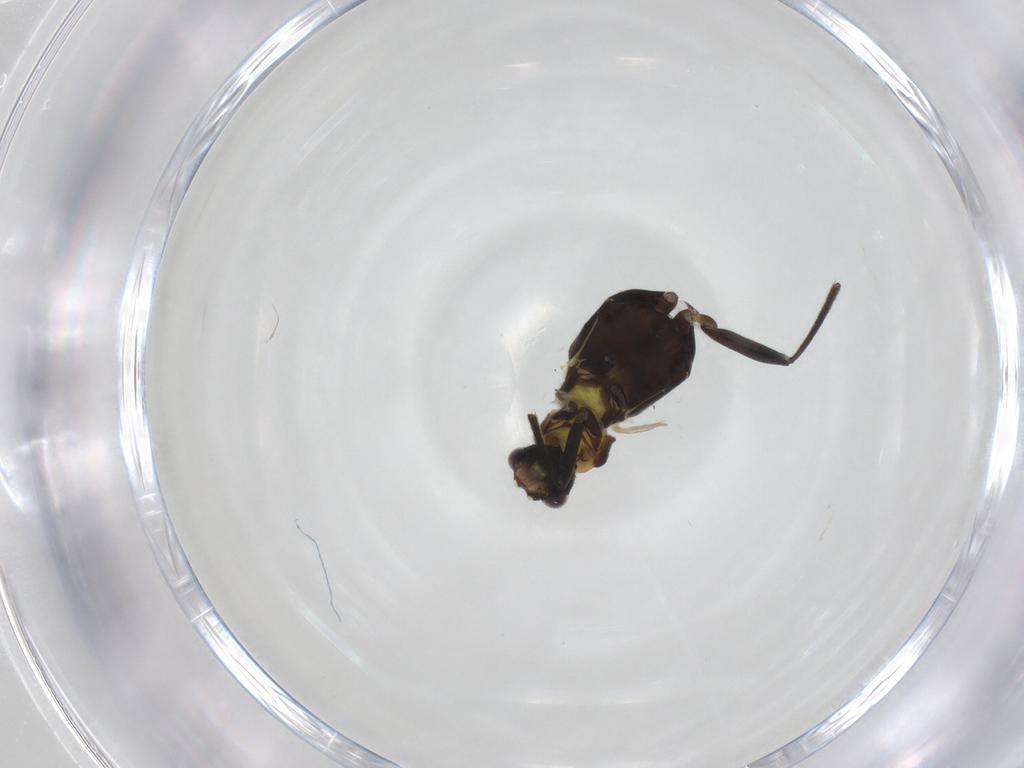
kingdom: Animalia
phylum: Arthropoda
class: Insecta
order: Coleoptera
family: Cantharidae
